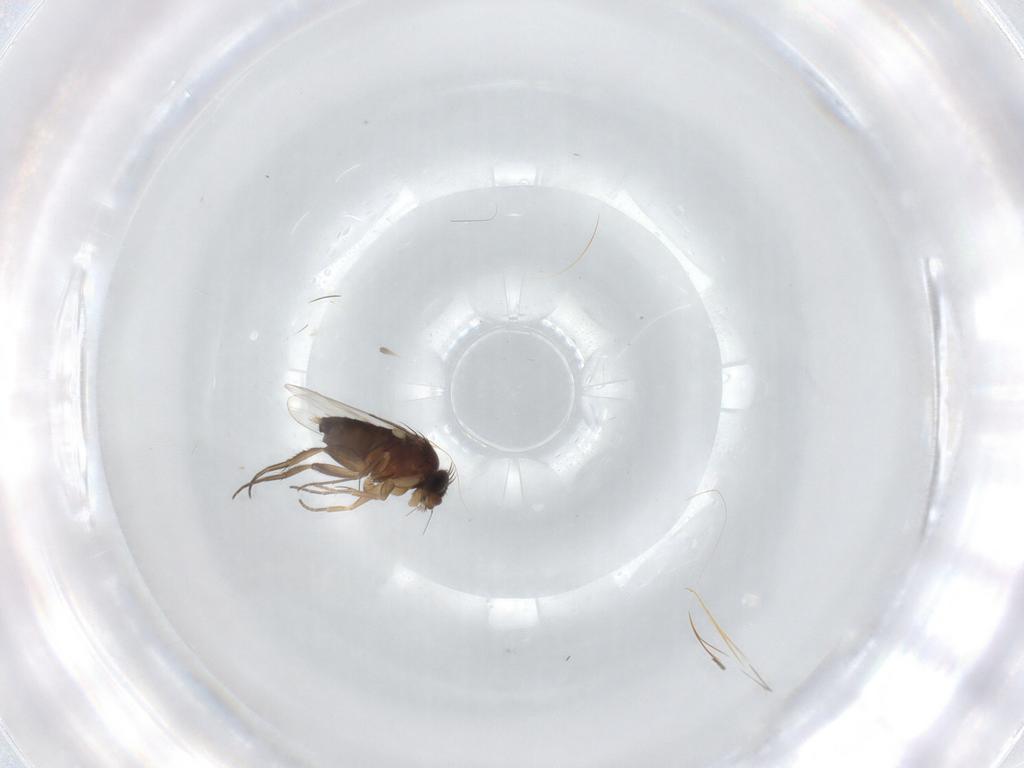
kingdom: Animalia
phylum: Arthropoda
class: Insecta
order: Diptera
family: Phoridae
